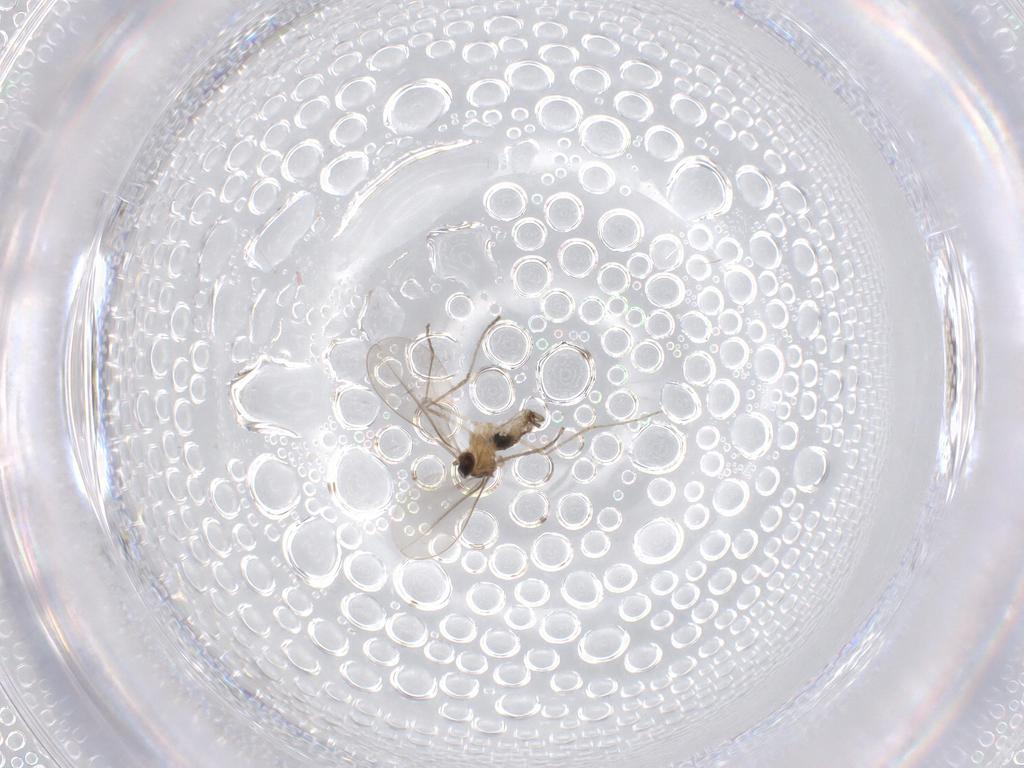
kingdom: Animalia
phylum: Arthropoda
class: Insecta
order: Diptera
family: Cecidomyiidae
